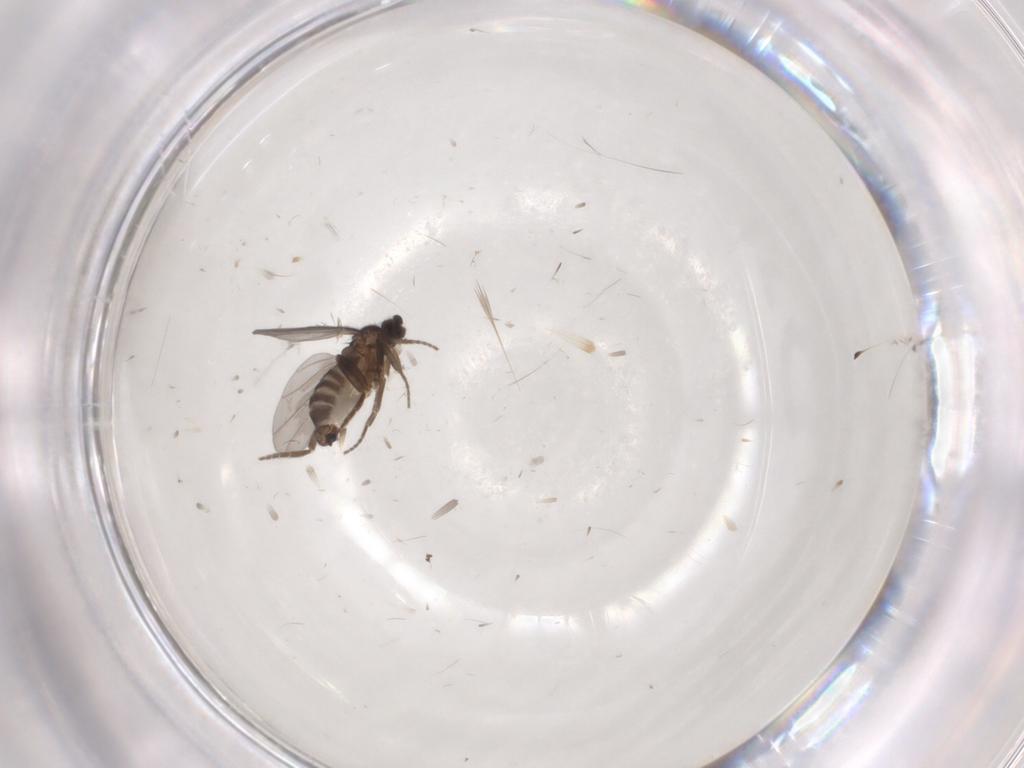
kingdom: Animalia
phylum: Arthropoda
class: Insecta
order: Diptera
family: Phoridae
